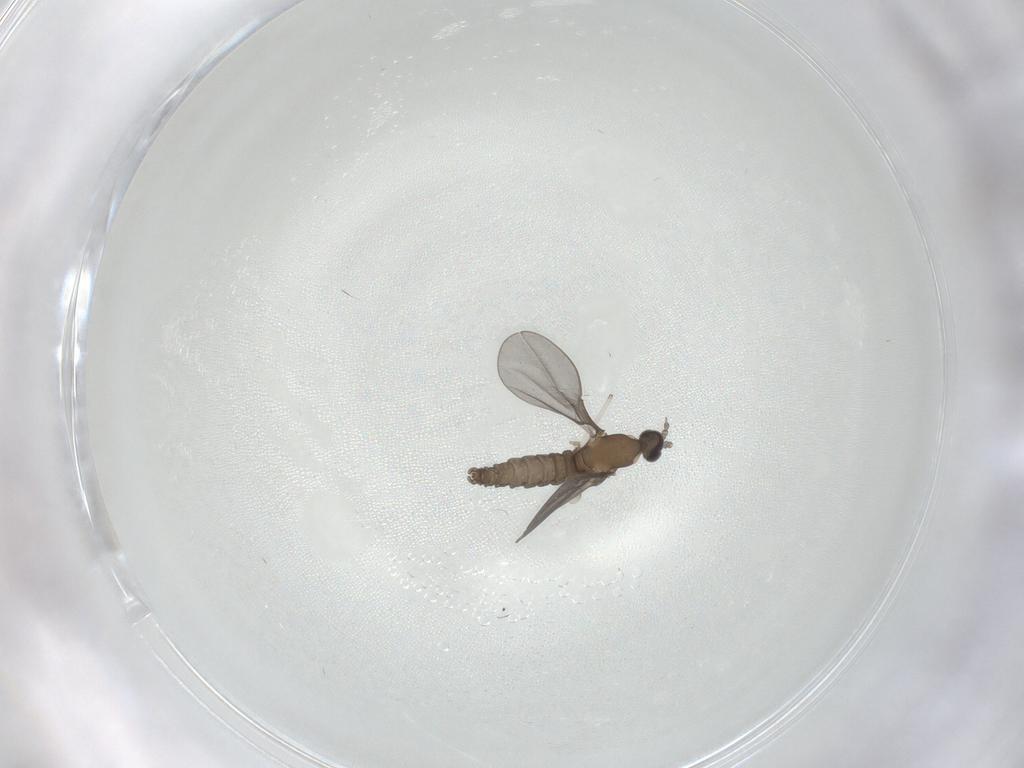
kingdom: Animalia
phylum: Arthropoda
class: Insecta
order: Diptera
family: Cecidomyiidae
